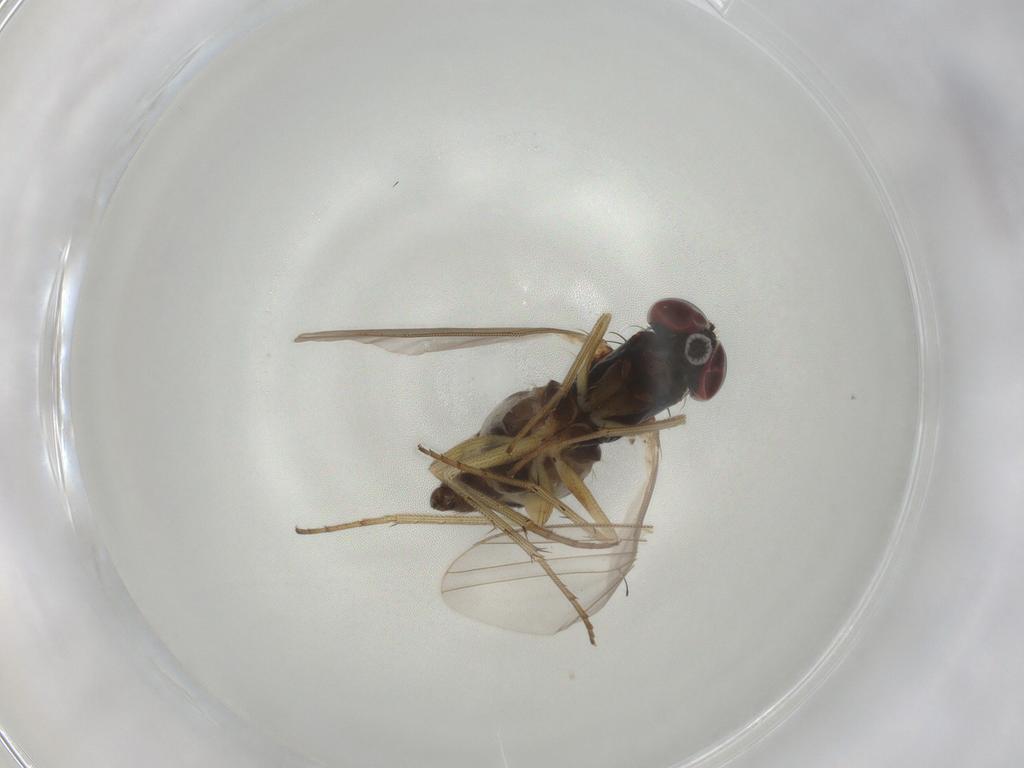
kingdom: Animalia
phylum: Arthropoda
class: Insecta
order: Diptera
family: Dolichopodidae
